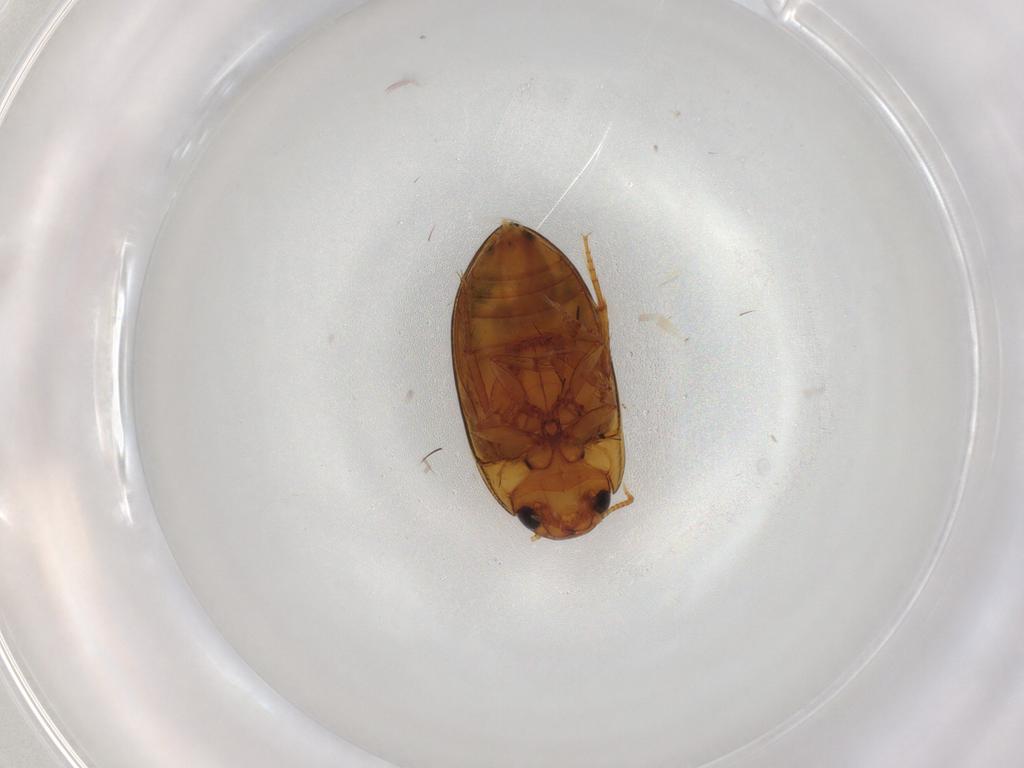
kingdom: Animalia
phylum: Arthropoda
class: Insecta
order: Coleoptera
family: Noteridae
